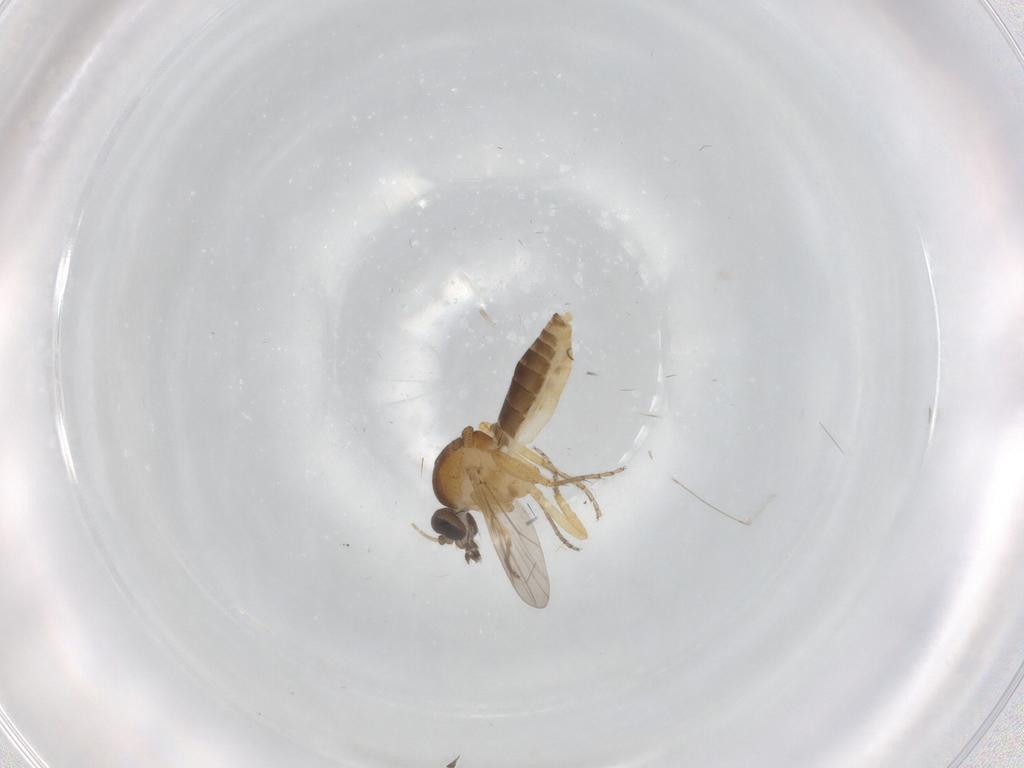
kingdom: Animalia
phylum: Arthropoda
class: Insecta
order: Diptera
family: Ceratopogonidae
